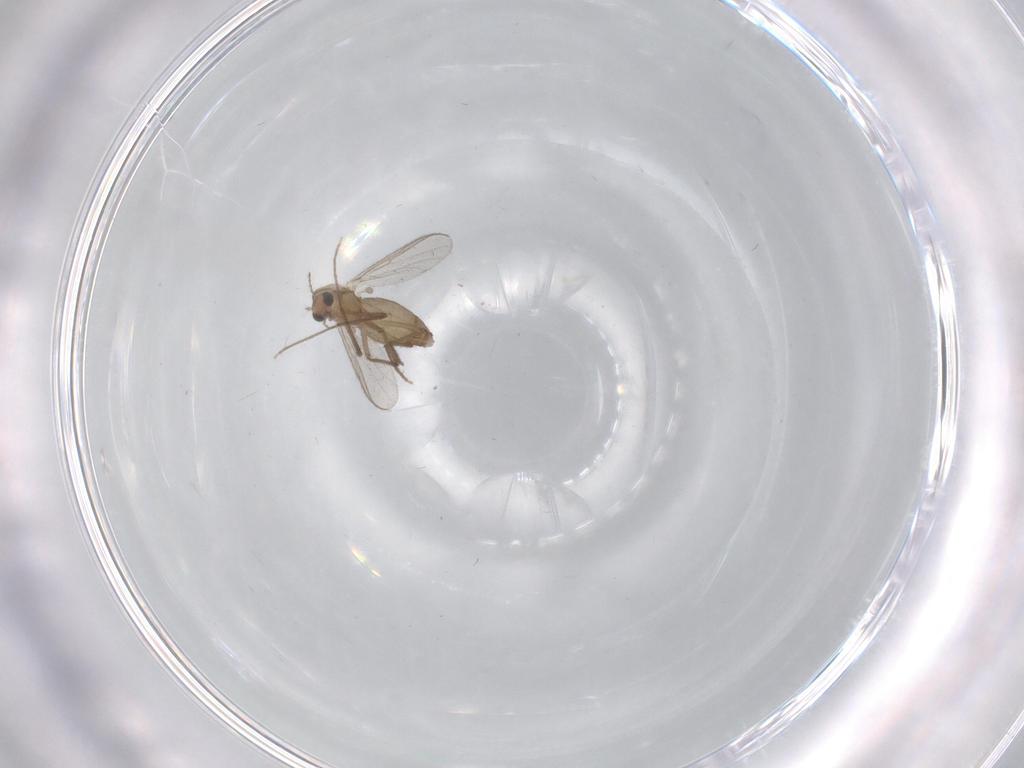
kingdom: Animalia
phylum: Arthropoda
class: Insecta
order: Diptera
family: Chironomidae
